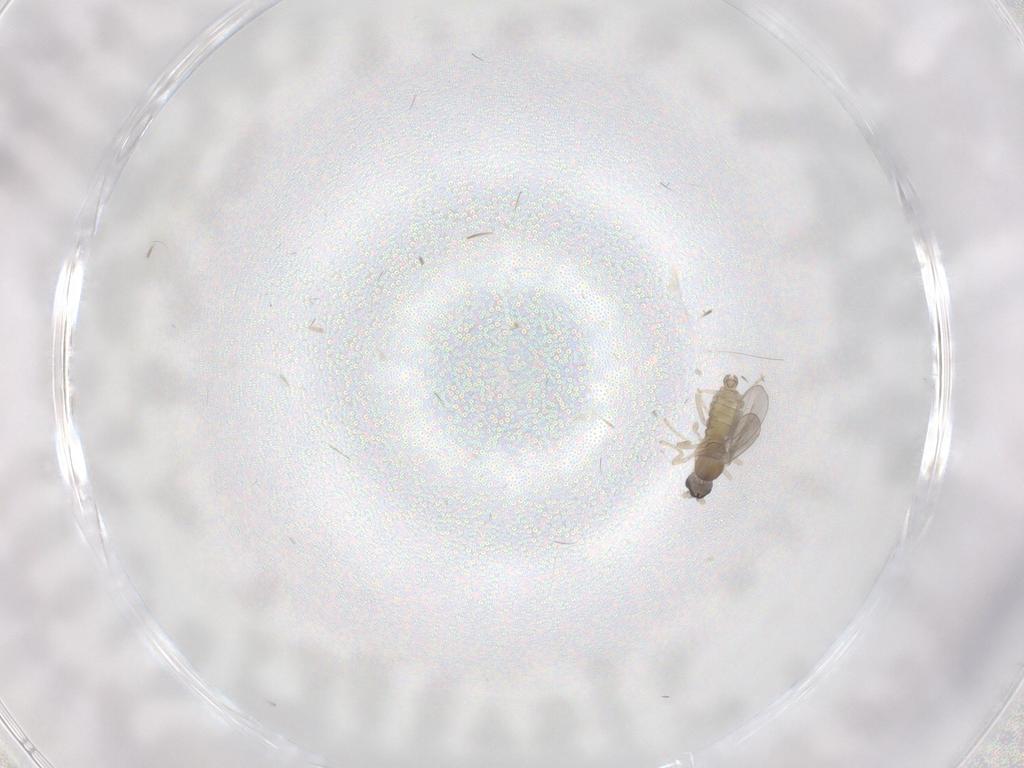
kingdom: Animalia
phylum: Arthropoda
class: Insecta
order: Diptera
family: Cecidomyiidae
